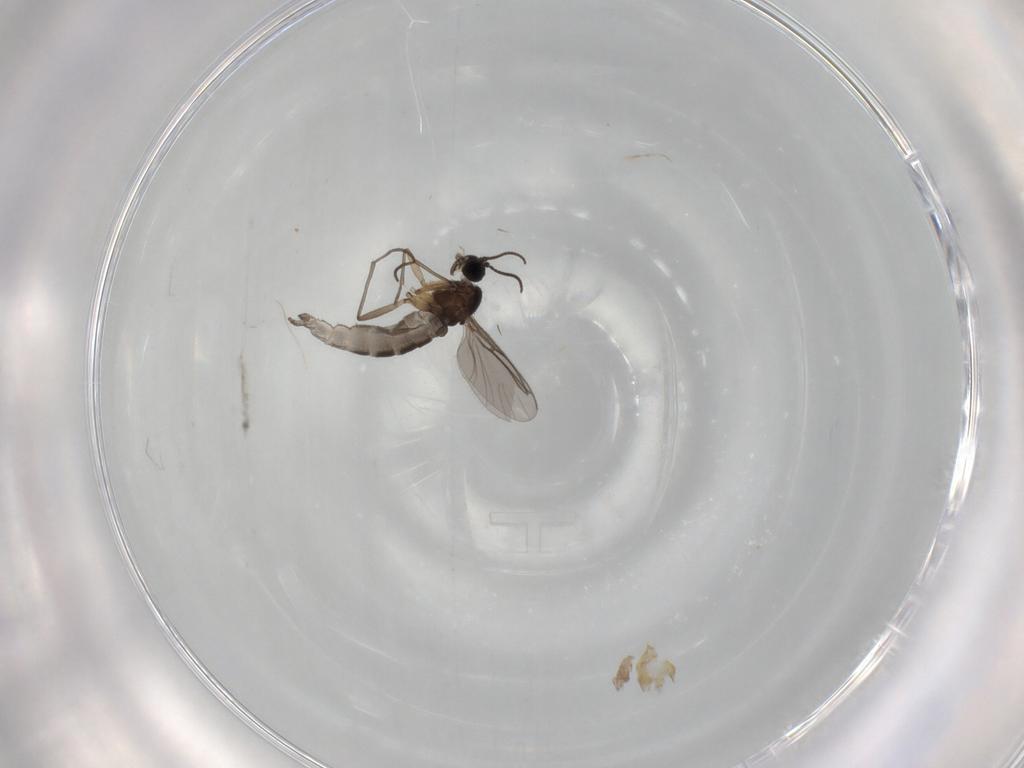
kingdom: Animalia
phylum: Arthropoda
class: Insecta
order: Diptera
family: Sciaridae
